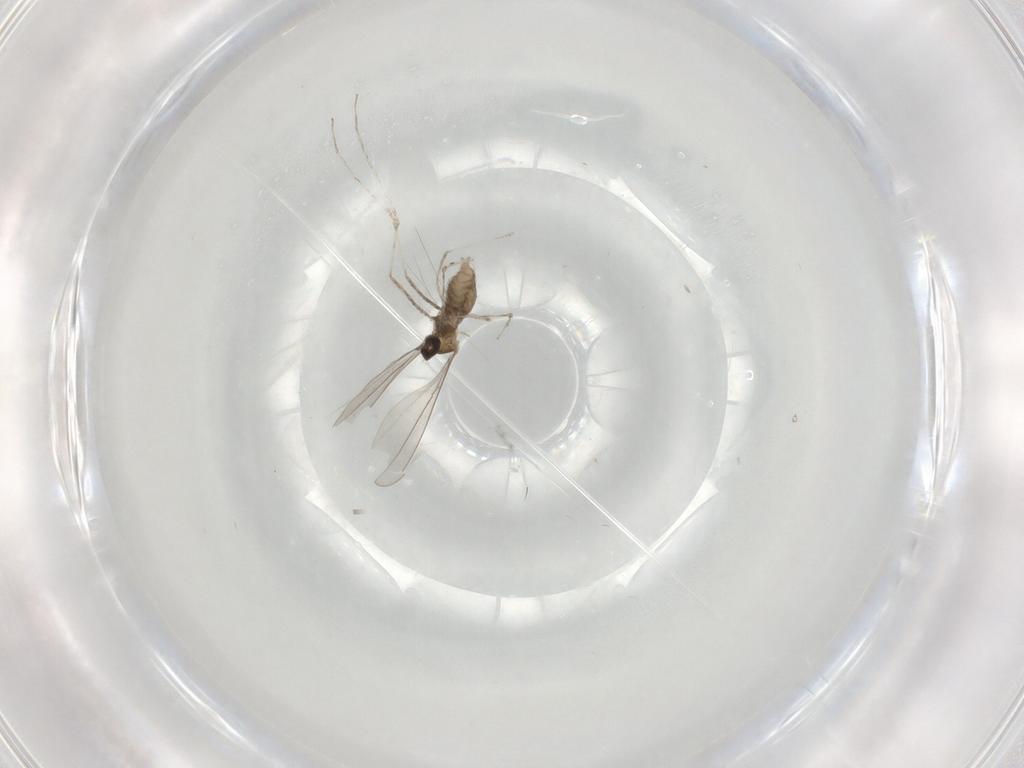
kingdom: Animalia
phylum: Arthropoda
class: Insecta
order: Diptera
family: Cecidomyiidae
